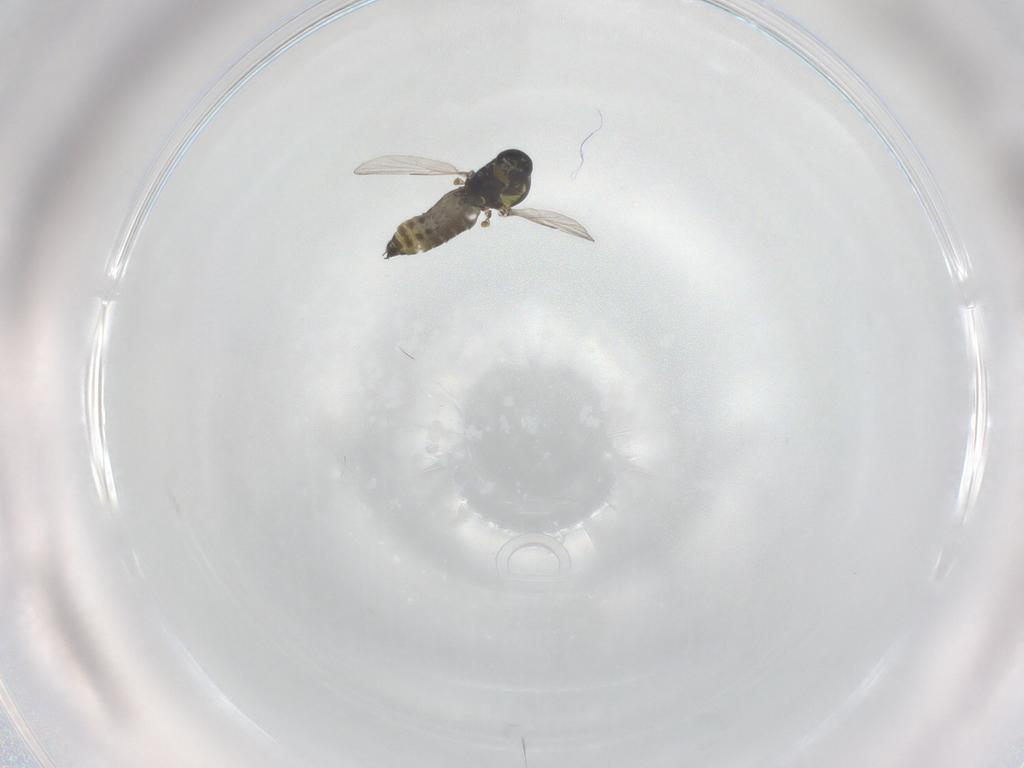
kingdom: Animalia
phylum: Arthropoda
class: Insecta
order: Diptera
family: Ceratopogonidae
